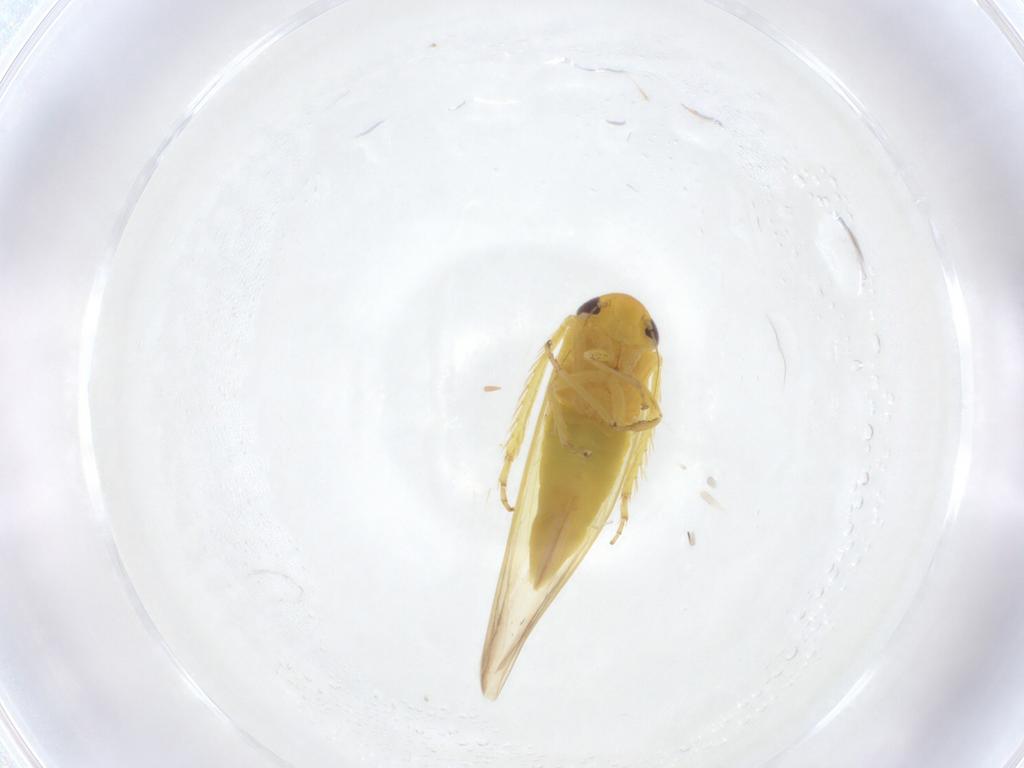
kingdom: Animalia
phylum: Arthropoda
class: Insecta
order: Hemiptera
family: Cicadellidae
